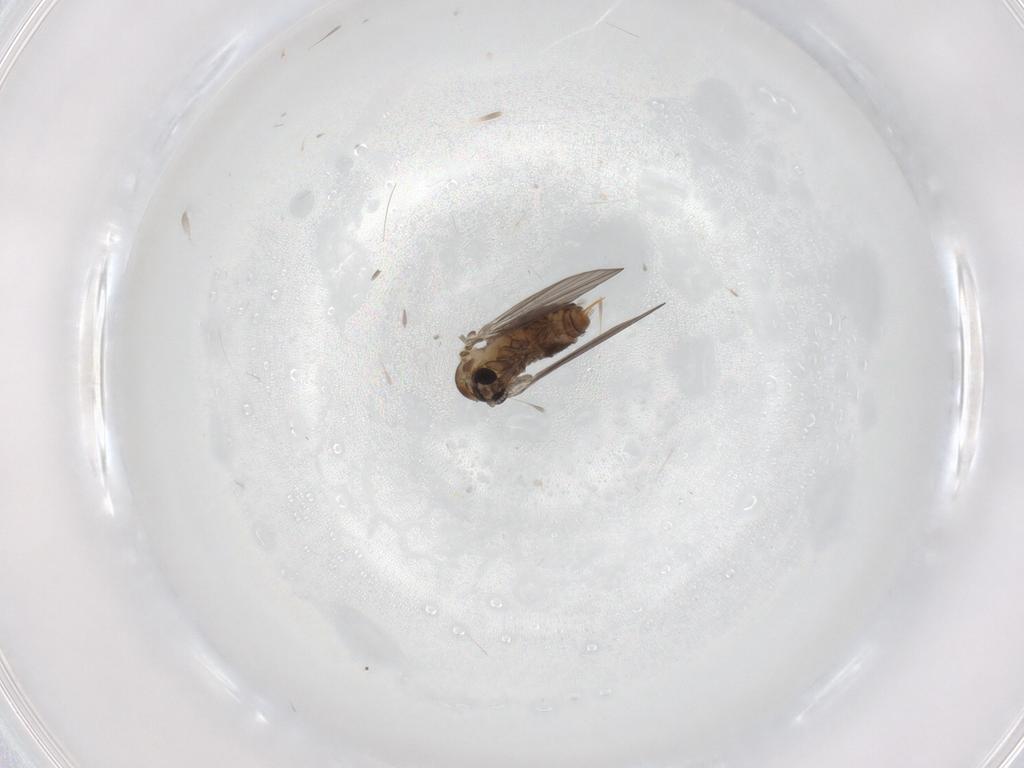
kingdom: Animalia
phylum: Arthropoda
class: Insecta
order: Diptera
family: Psychodidae
